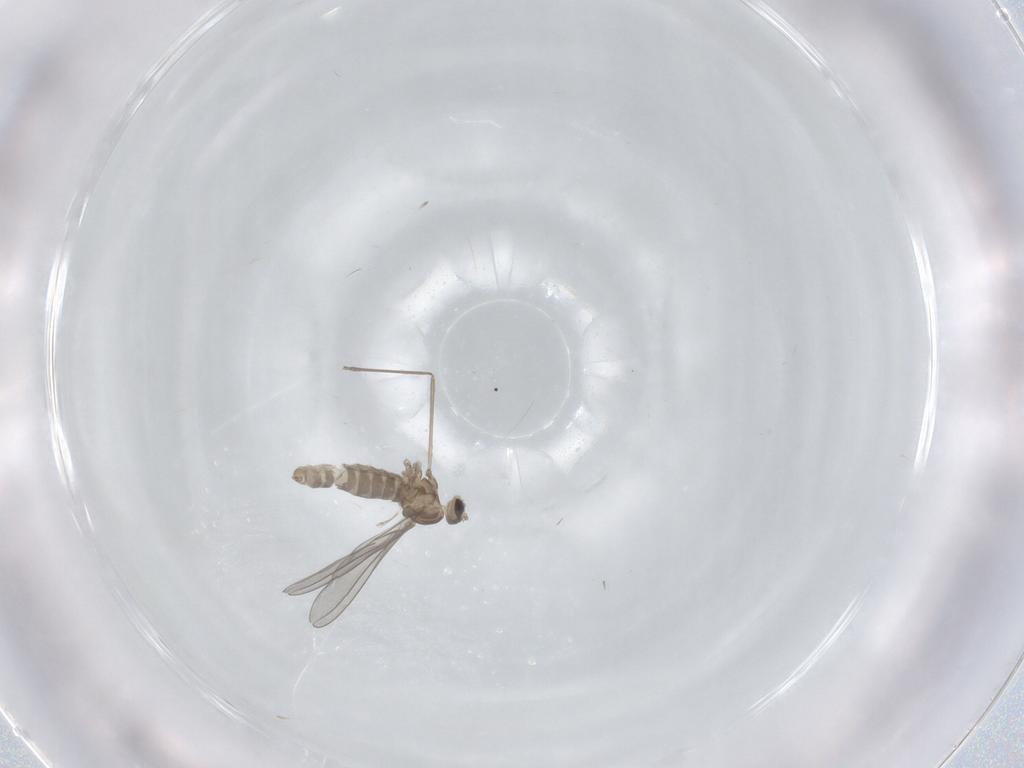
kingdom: Animalia
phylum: Arthropoda
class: Insecta
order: Diptera
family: Cecidomyiidae
